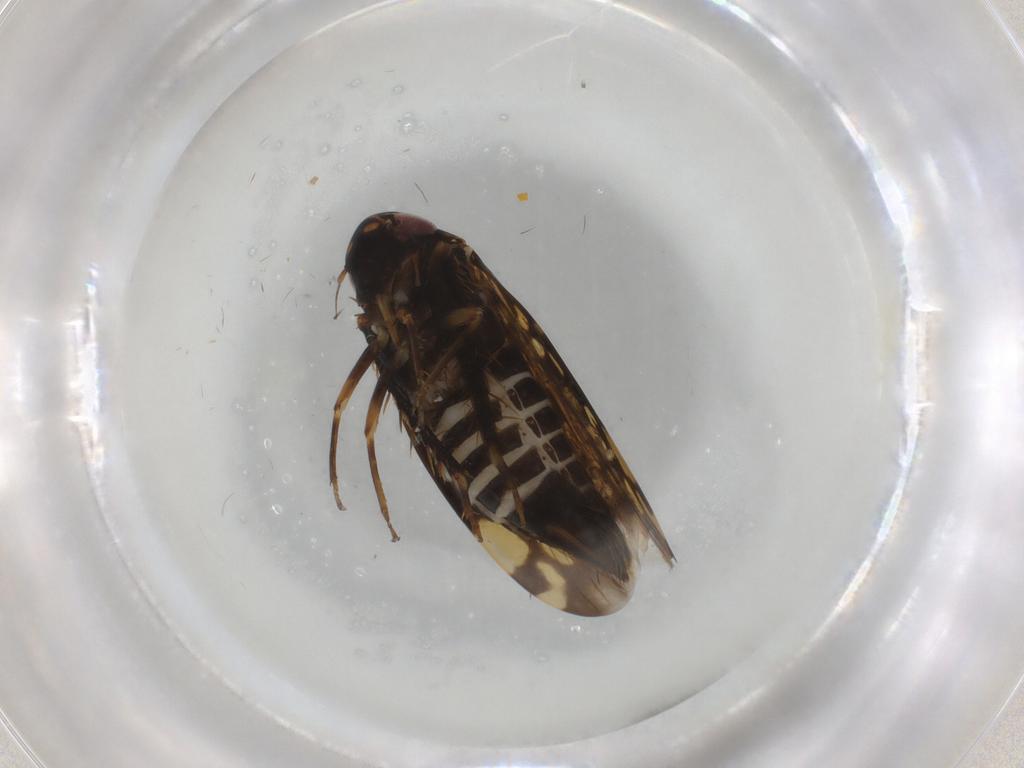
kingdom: Animalia
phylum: Arthropoda
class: Insecta
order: Hemiptera
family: Cicadellidae
